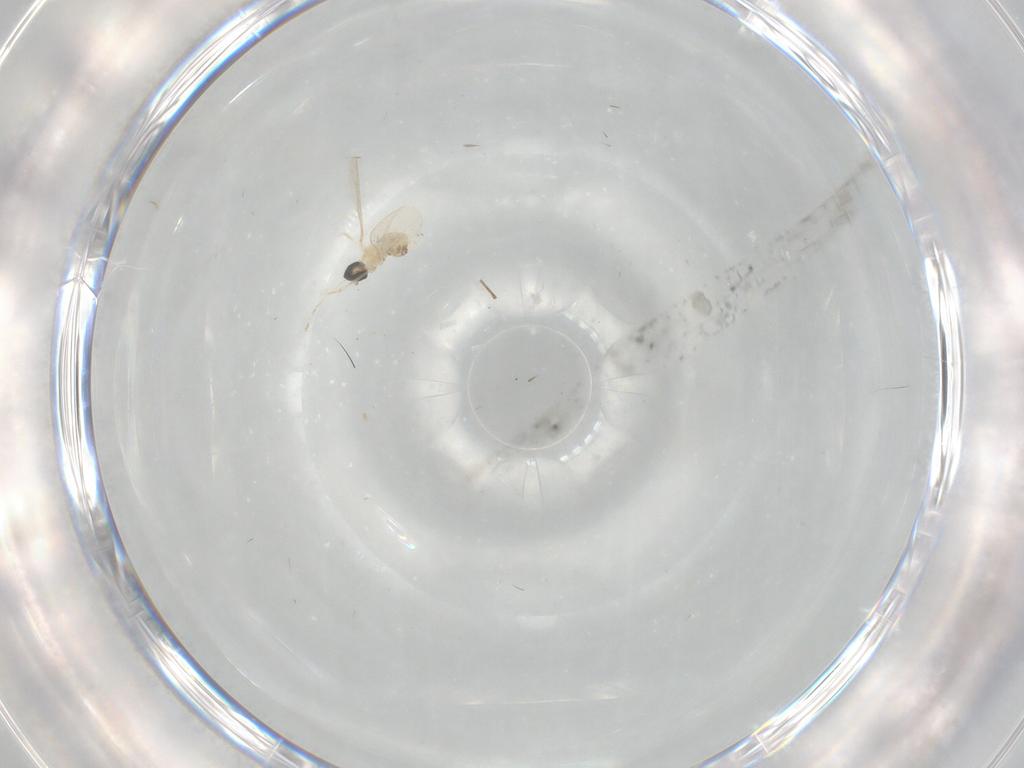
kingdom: Animalia
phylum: Arthropoda
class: Insecta
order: Diptera
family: Cecidomyiidae
